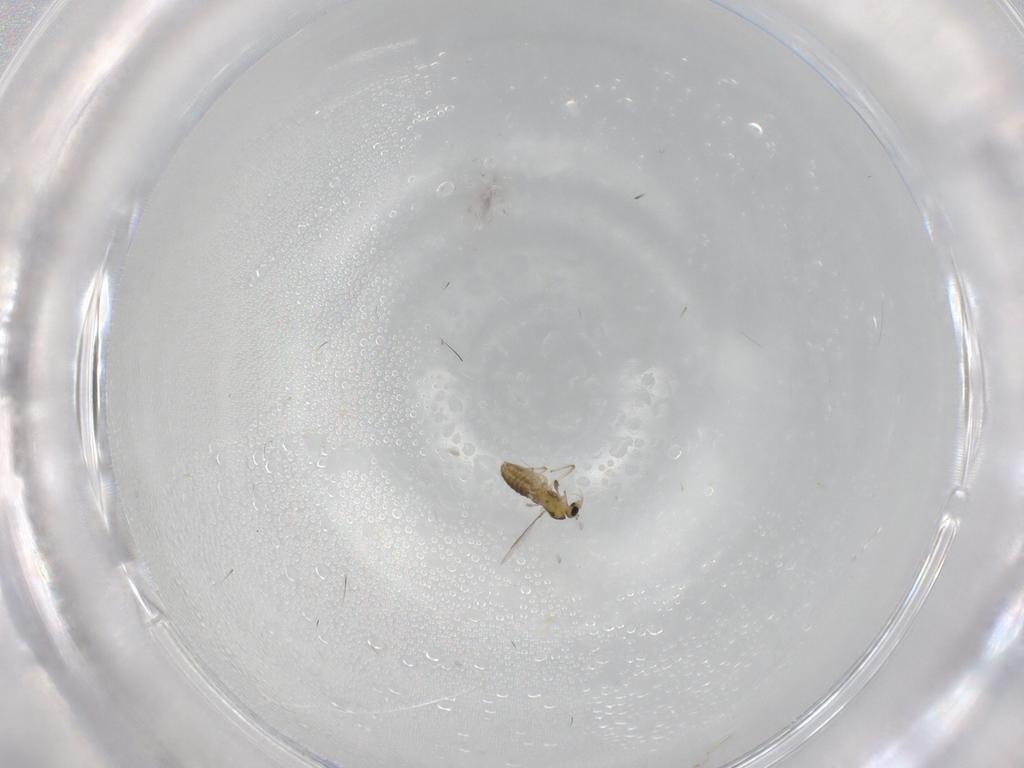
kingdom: Animalia
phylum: Arthropoda
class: Insecta
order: Diptera
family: Chironomidae
